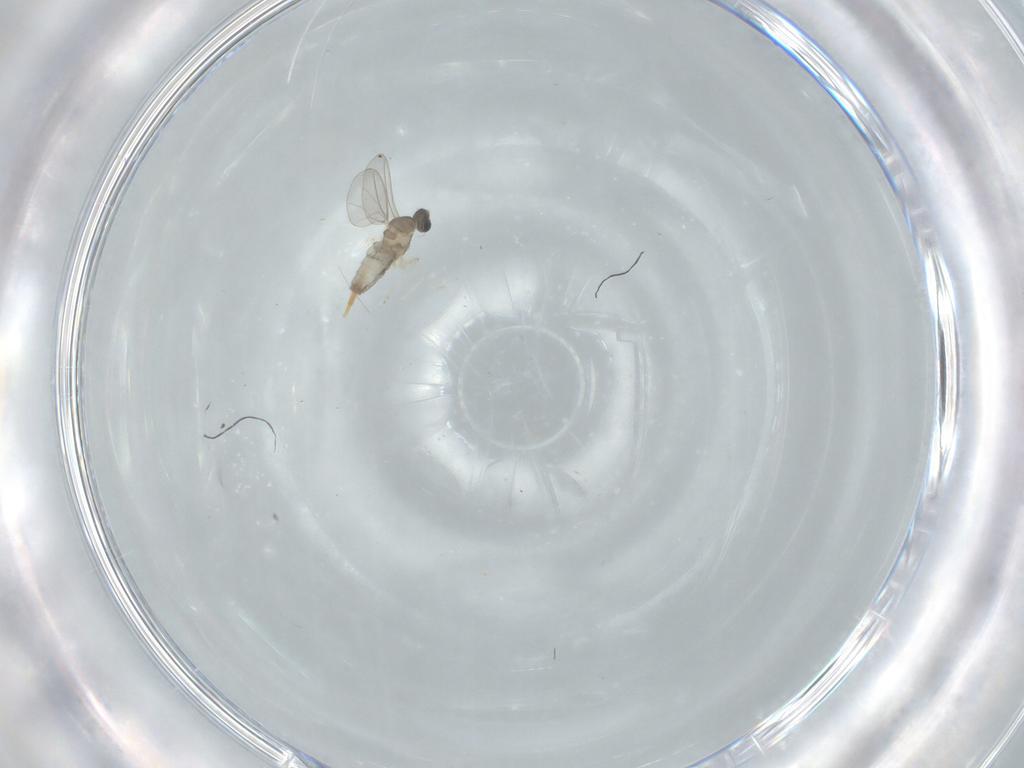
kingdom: Animalia
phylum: Arthropoda
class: Insecta
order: Diptera
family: Cecidomyiidae
